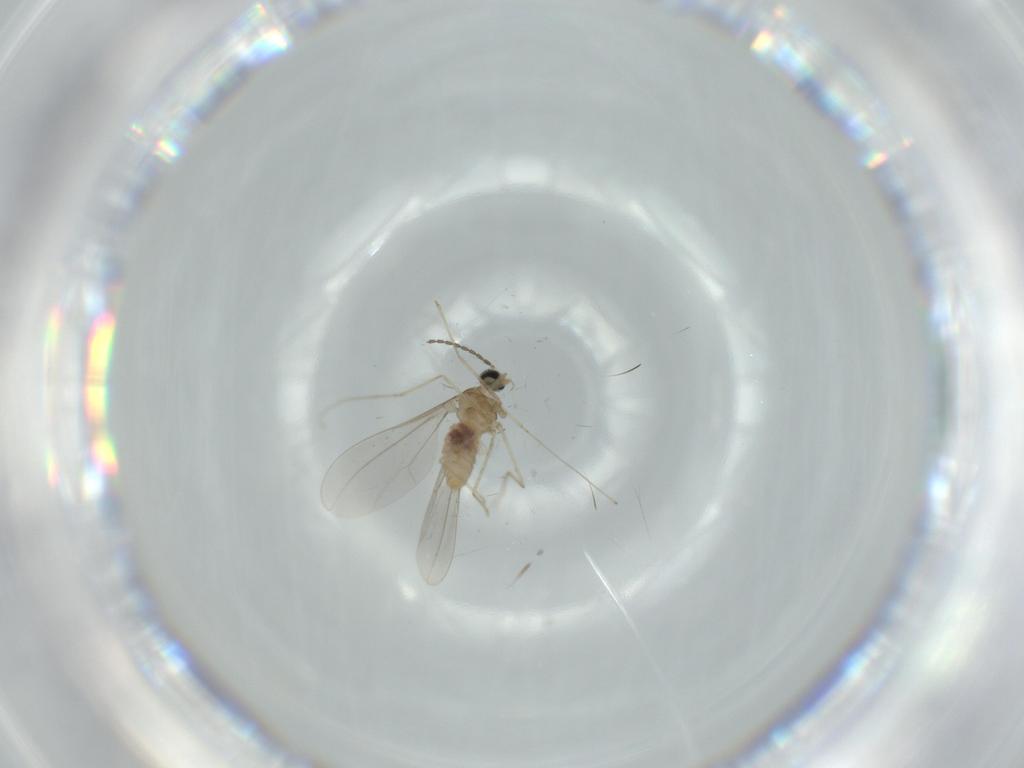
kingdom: Animalia
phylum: Arthropoda
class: Insecta
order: Diptera
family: Cecidomyiidae
